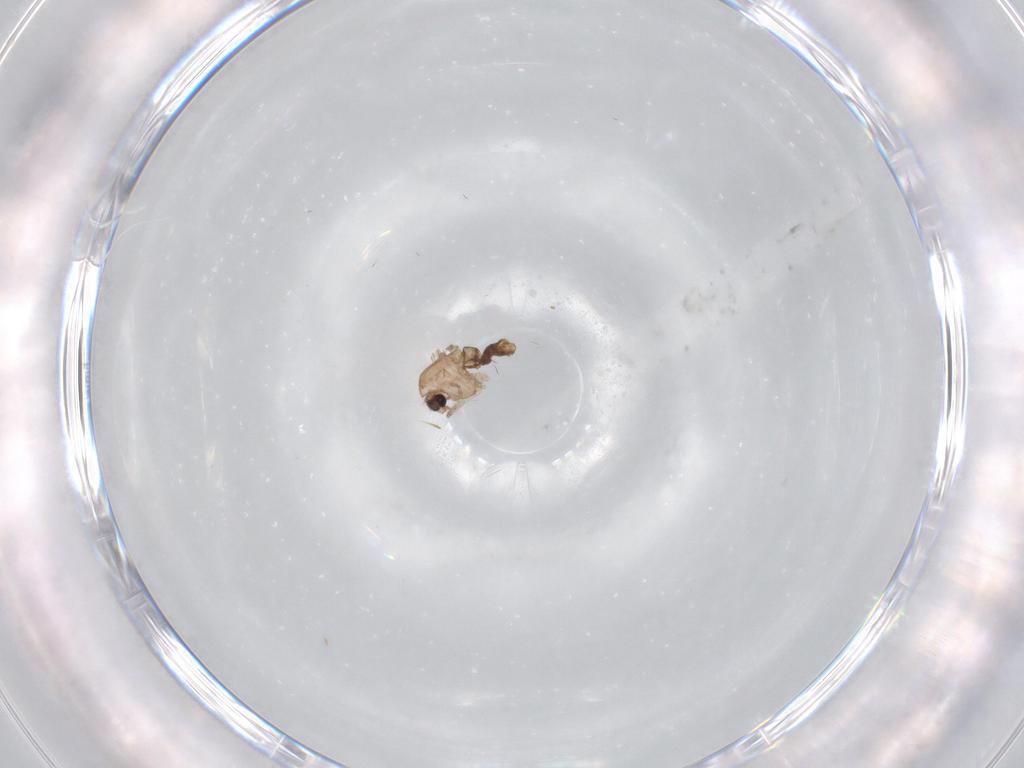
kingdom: Animalia
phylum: Arthropoda
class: Insecta
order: Diptera
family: Chironomidae
